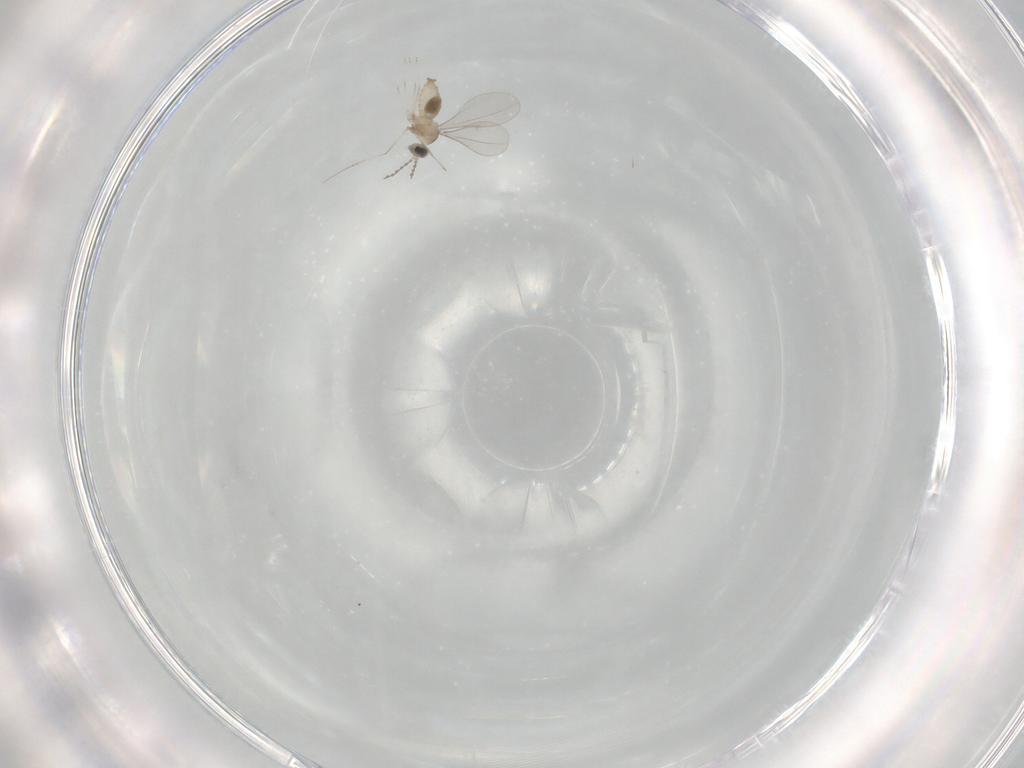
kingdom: Animalia
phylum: Arthropoda
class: Insecta
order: Diptera
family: Cecidomyiidae
